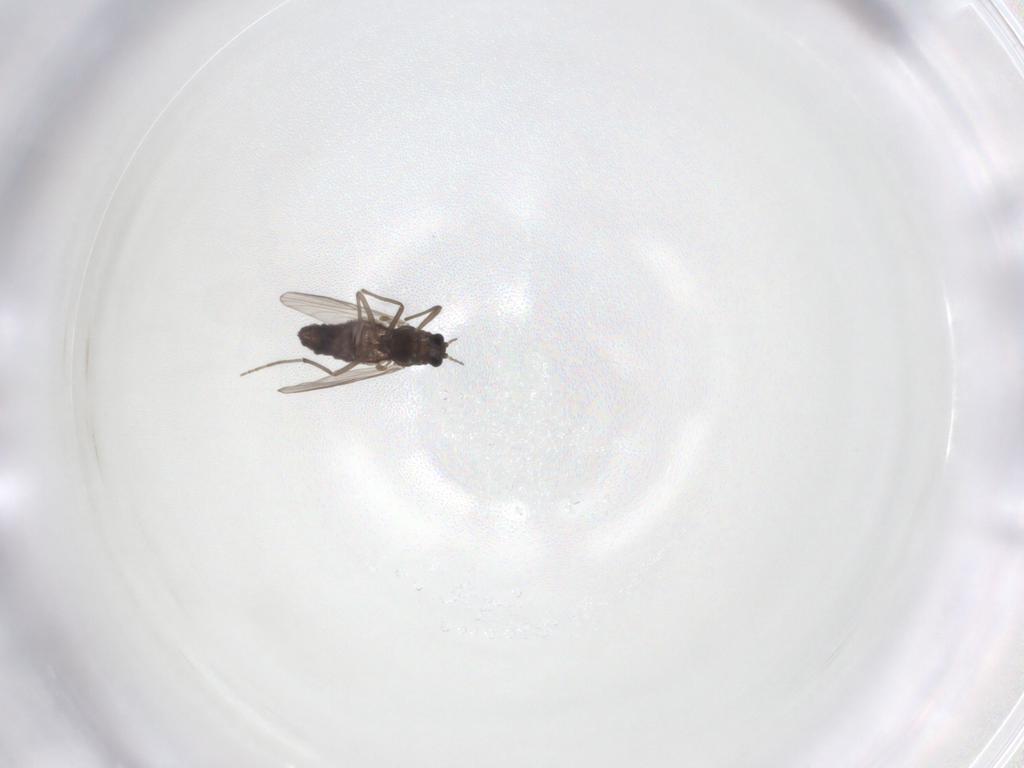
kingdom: Animalia
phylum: Arthropoda
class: Insecta
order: Diptera
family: Chironomidae
